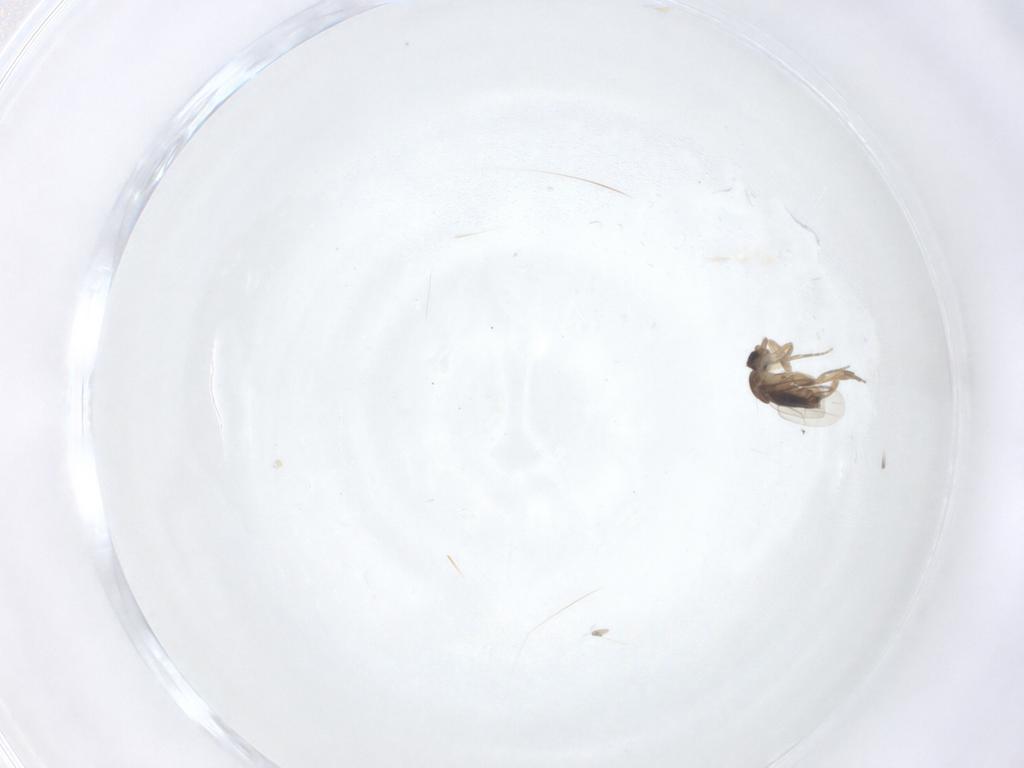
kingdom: Animalia
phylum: Arthropoda
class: Insecta
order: Diptera
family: Phoridae
